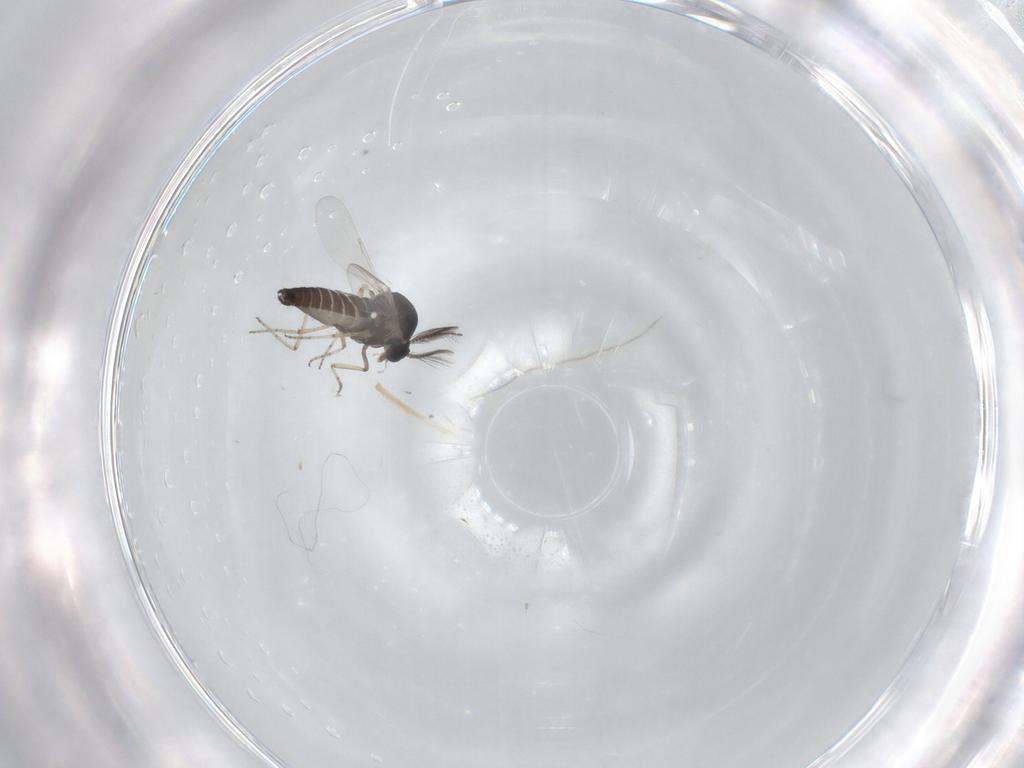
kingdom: Animalia
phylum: Arthropoda
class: Insecta
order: Diptera
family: Ceratopogonidae
